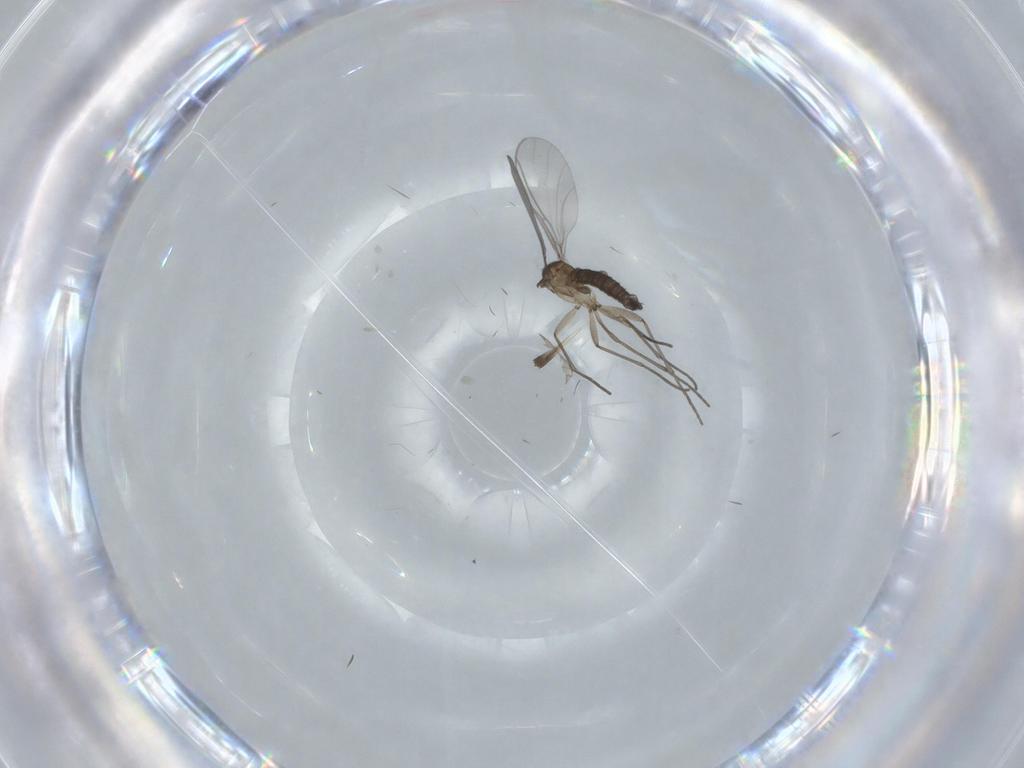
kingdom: Animalia
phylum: Arthropoda
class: Insecta
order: Diptera
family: Sciaridae
